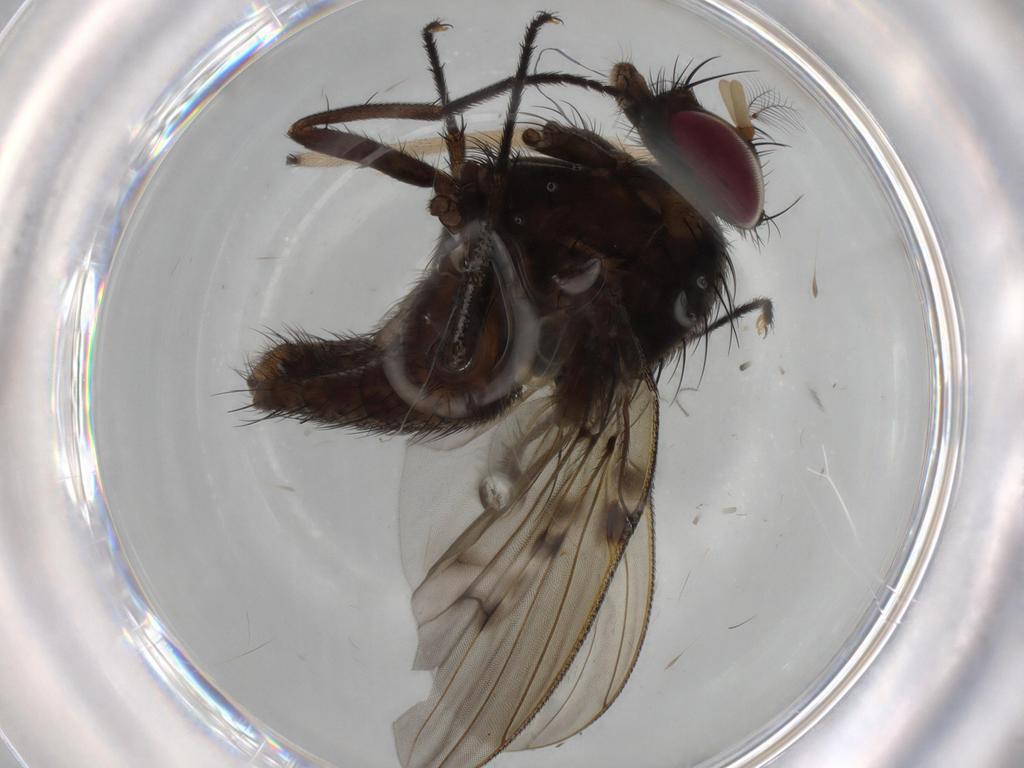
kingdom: Animalia
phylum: Arthropoda
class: Insecta
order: Diptera
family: Muscidae
